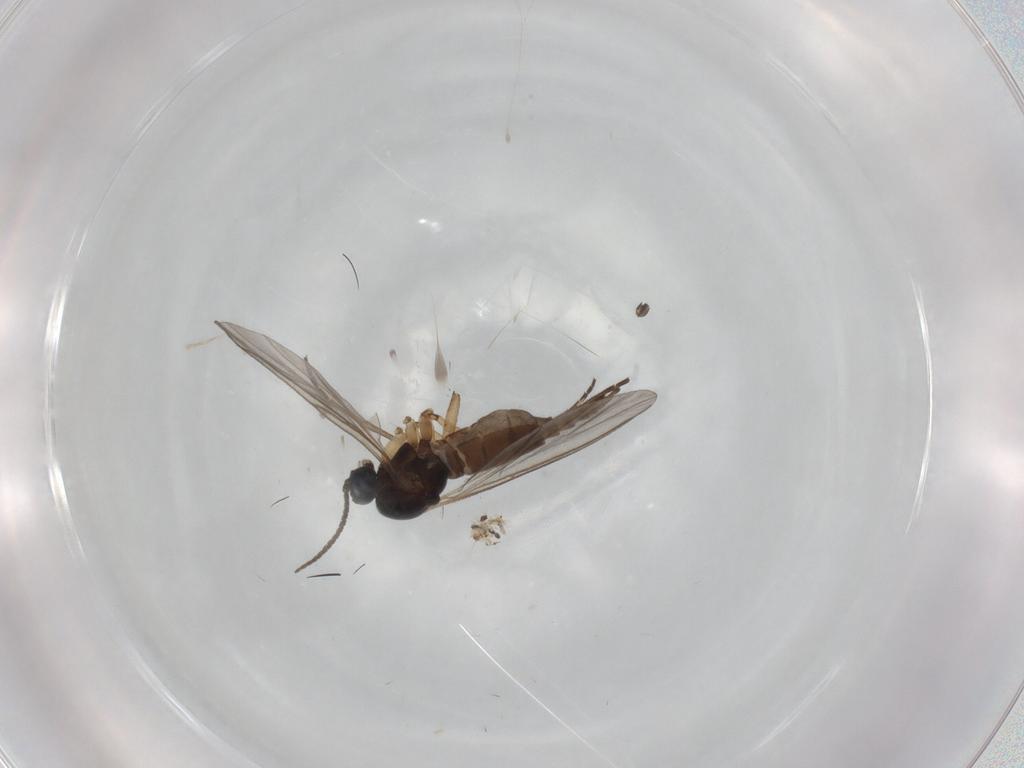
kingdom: Animalia
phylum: Arthropoda
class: Insecta
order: Diptera
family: Sciaridae
